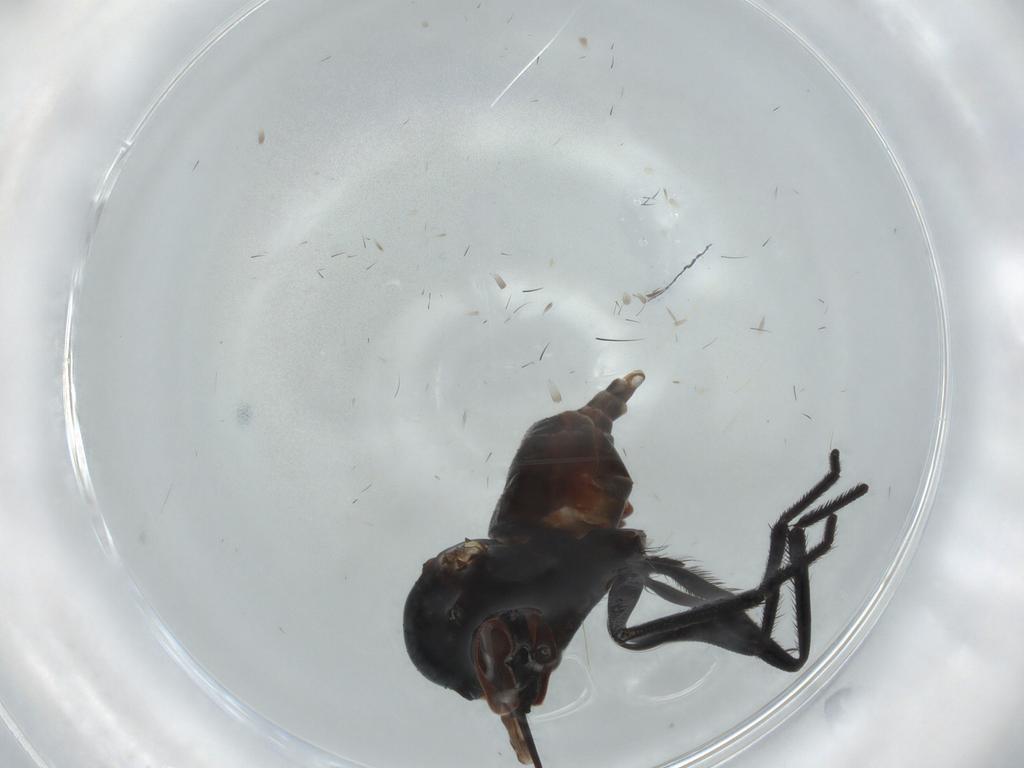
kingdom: Animalia
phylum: Arthropoda
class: Insecta
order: Diptera
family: Empididae
